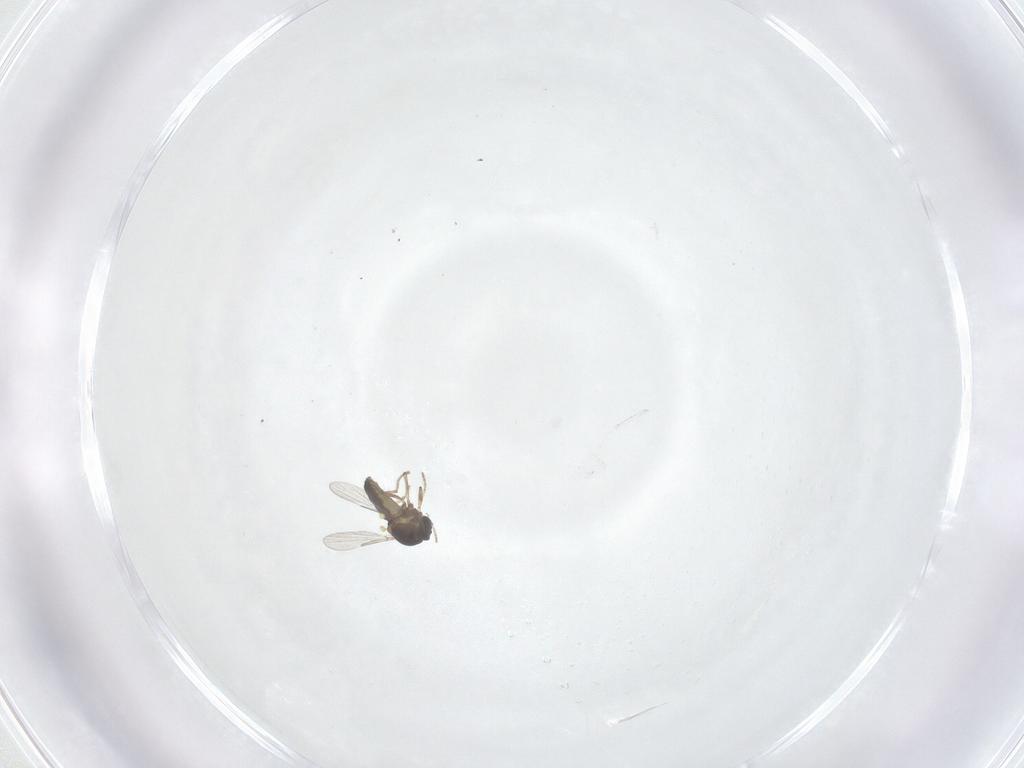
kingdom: Animalia
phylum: Arthropoda
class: Insecta
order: Diptera
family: Ceratopogonidae
